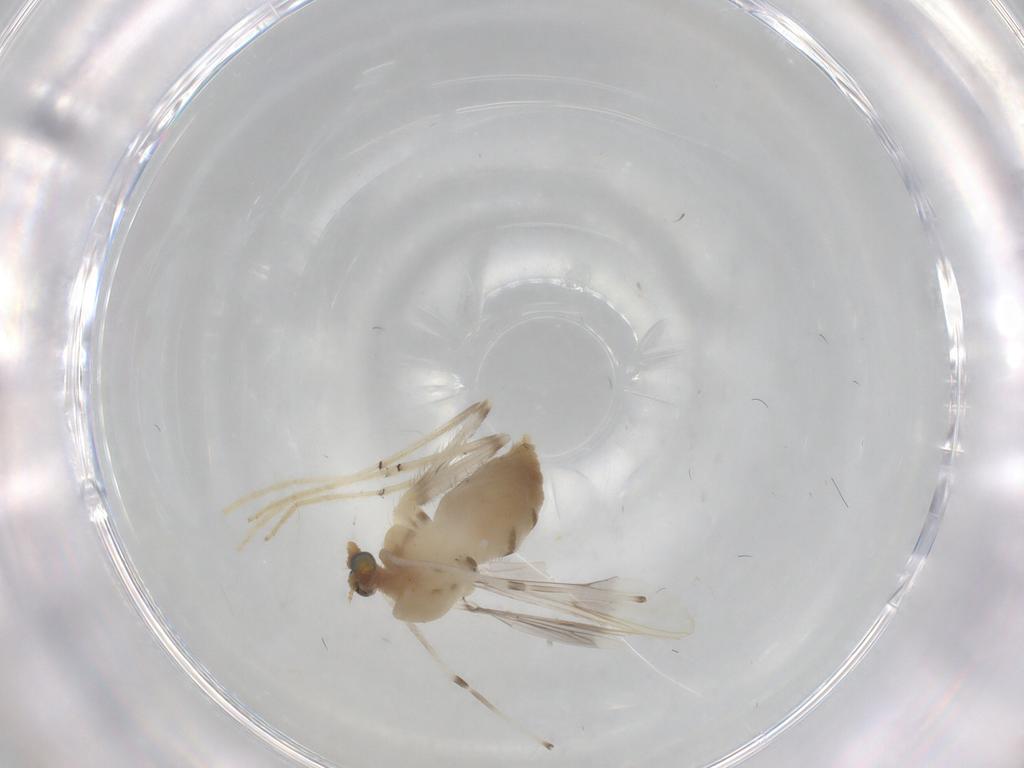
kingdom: Animalia
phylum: Arthropoda
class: Insecta
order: Diptera
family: Chironomidae
